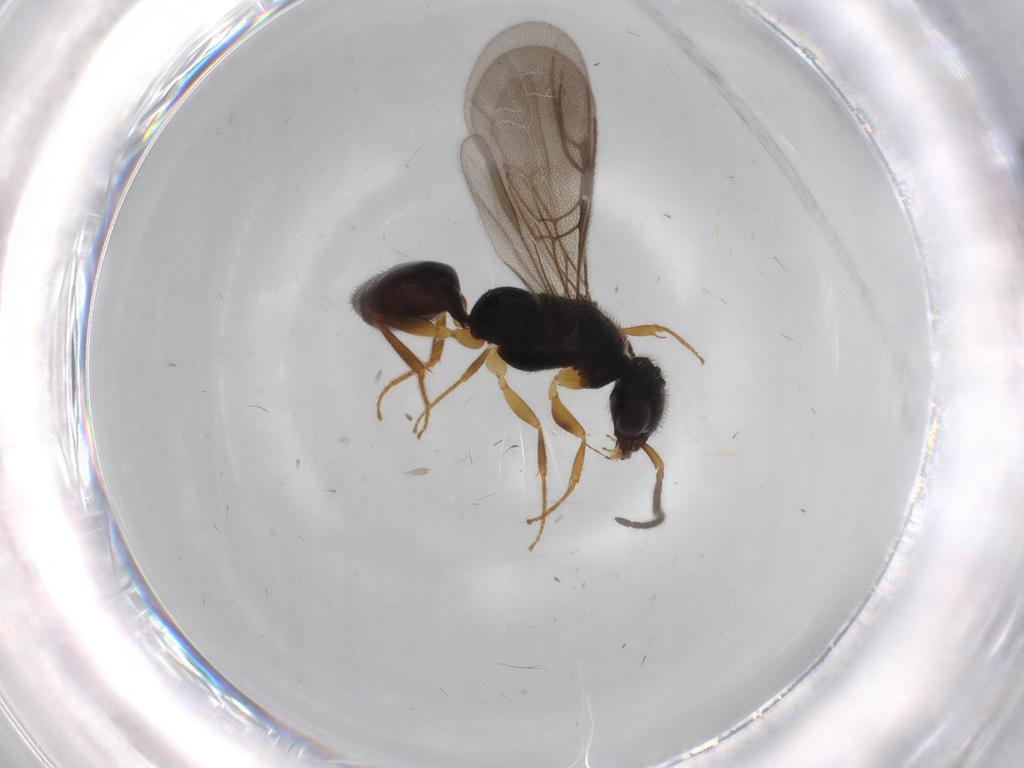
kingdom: Animalia
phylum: Arthropoda
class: Insecta
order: Hymenoptera
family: Bethylidae
